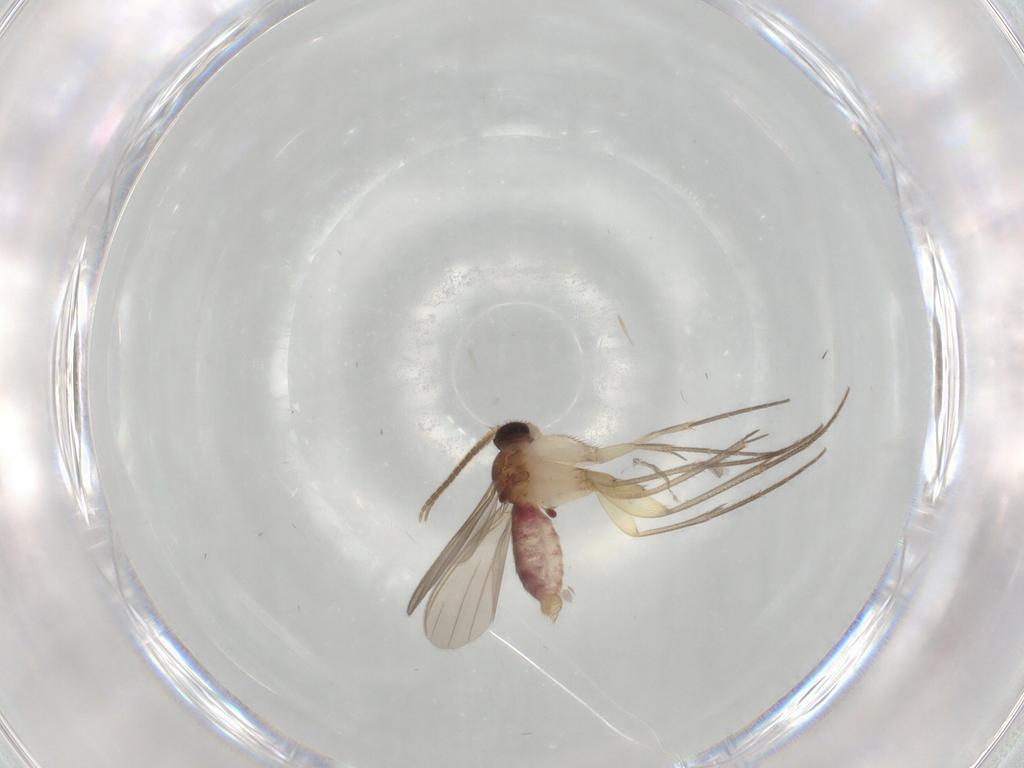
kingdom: Animalia
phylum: Arthropoda
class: Insecta
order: Diptera
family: Mycetophilidae
